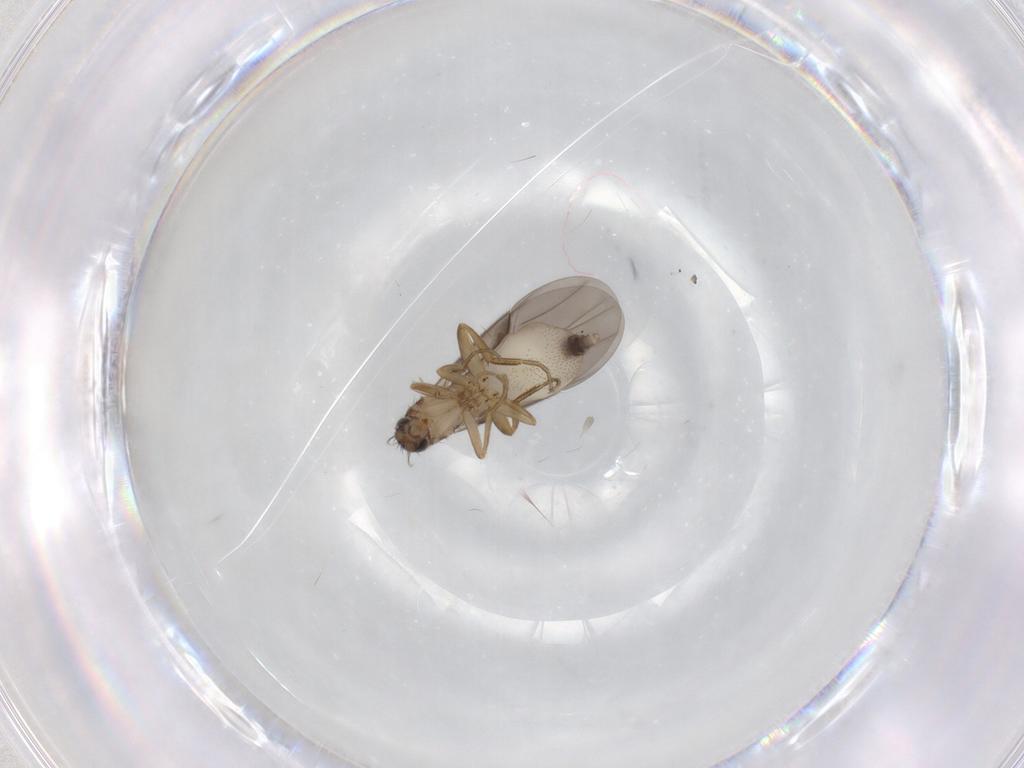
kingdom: Animalia
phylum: Arthropoda
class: Insecta
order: Diptera
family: Phoridae
